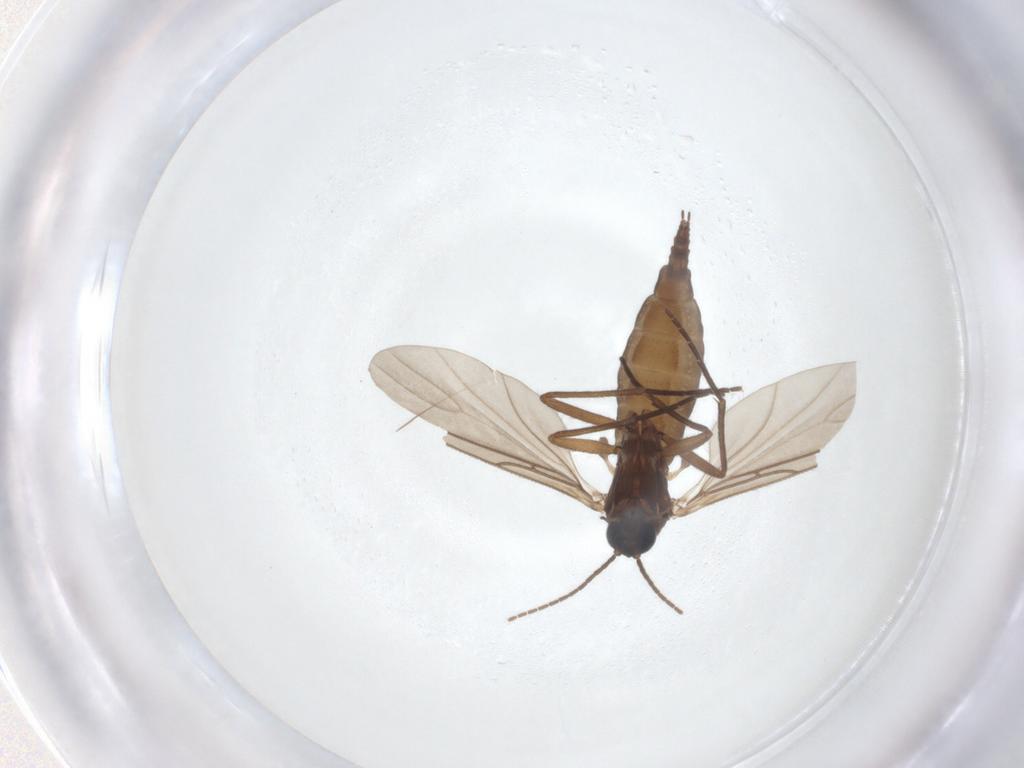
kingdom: Animalia
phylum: Arthropoda
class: Insecta
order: Diptera
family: Sciaridae
